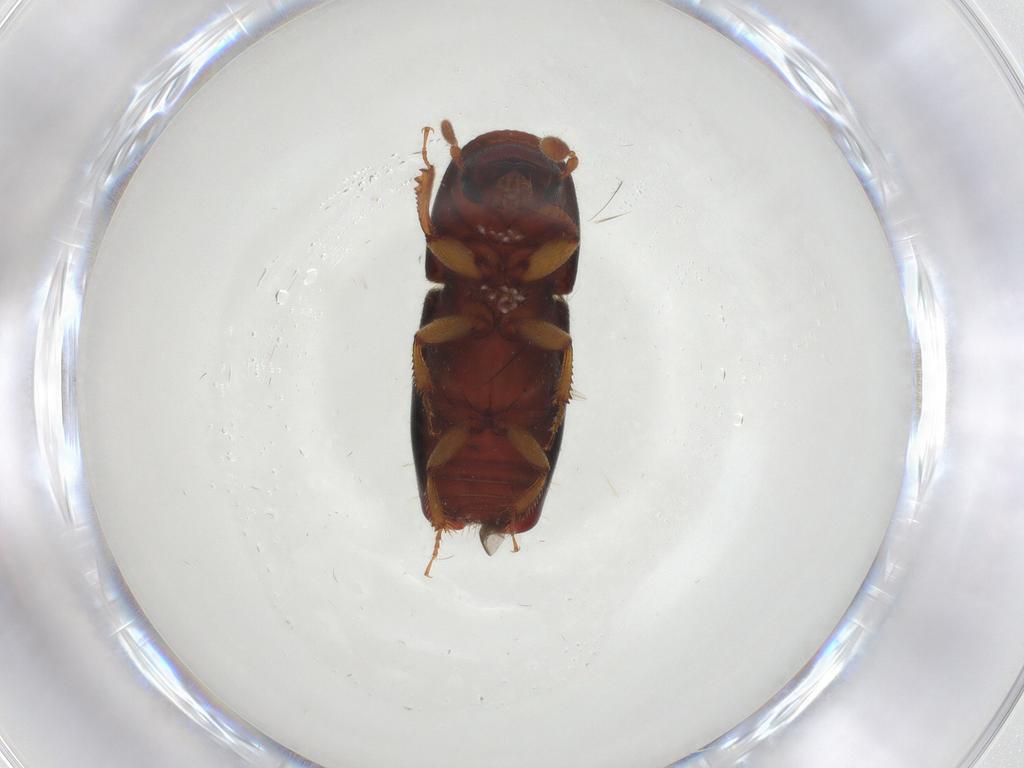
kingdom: Animalia
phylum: Arthropoda
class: Insecta
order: Coleoptera
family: Curculionidae
